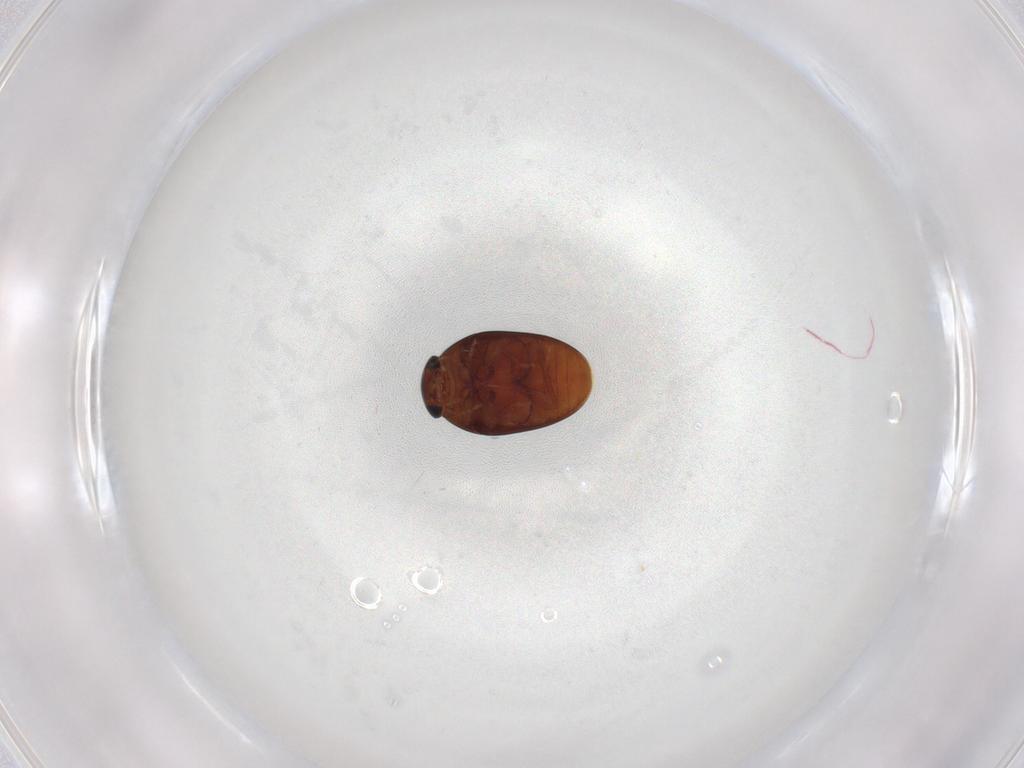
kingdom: Animalia
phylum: Arthropoda
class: Insecta
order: Coleoptera
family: Phalacridae
